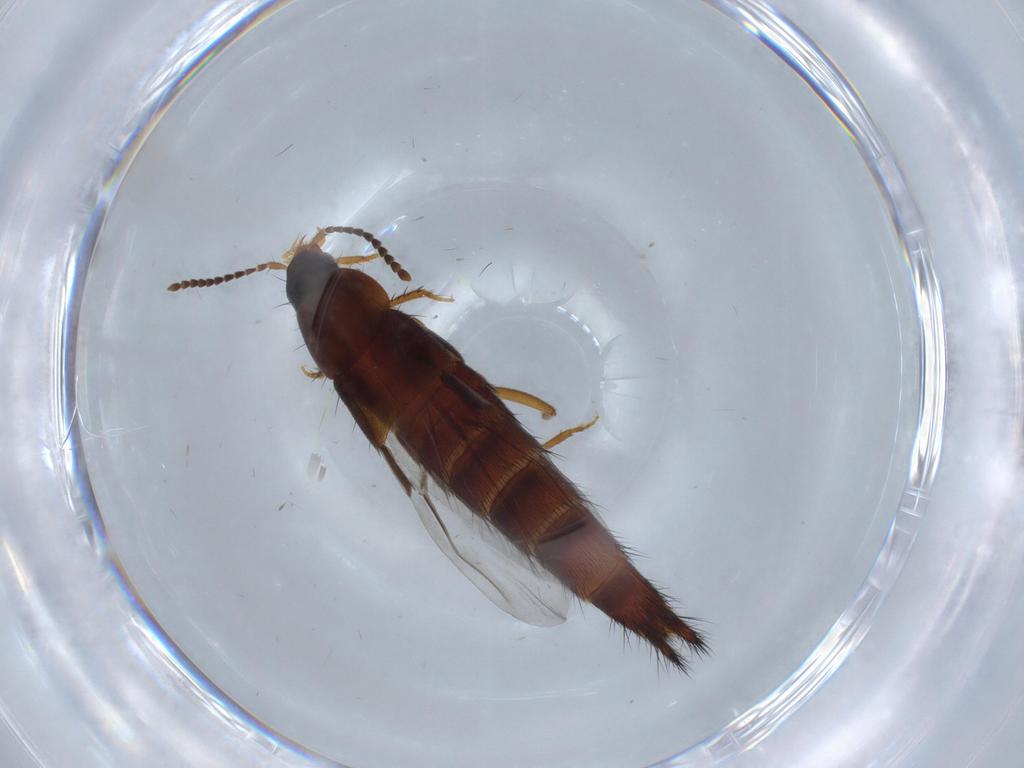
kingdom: Animalia
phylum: Arthropoda
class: Insecta
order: Coleoptera
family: Staphylinidae
